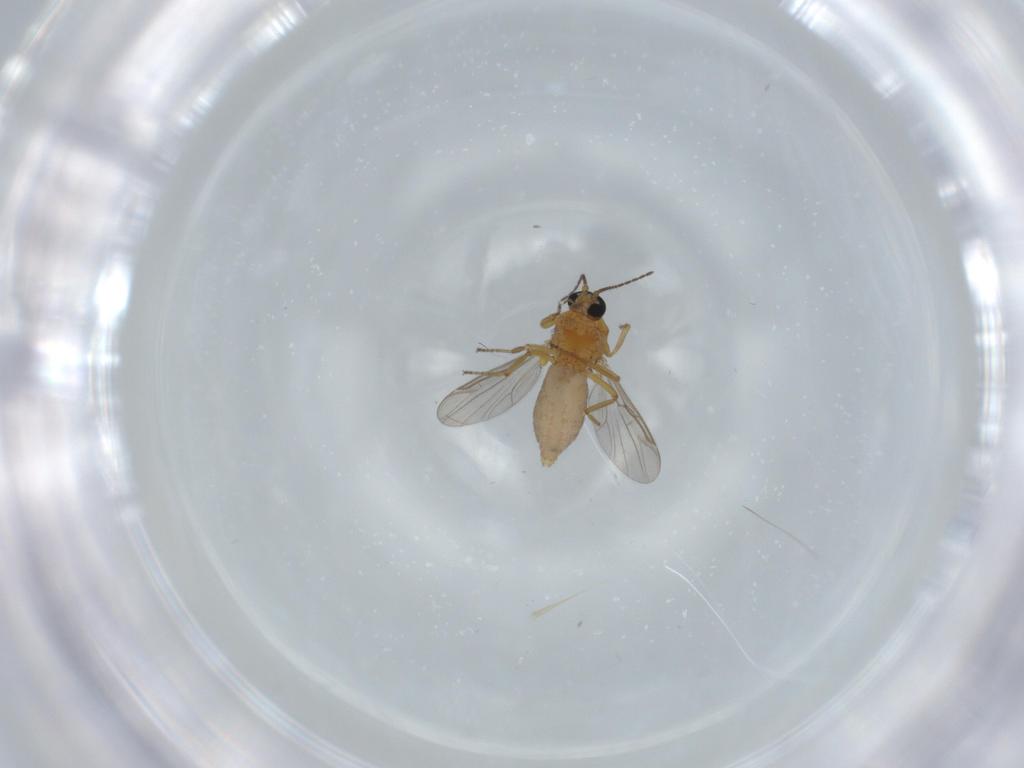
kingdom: Animalia
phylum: Arthropoda
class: Insecta
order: Diptera
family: Ceratopogonidae
